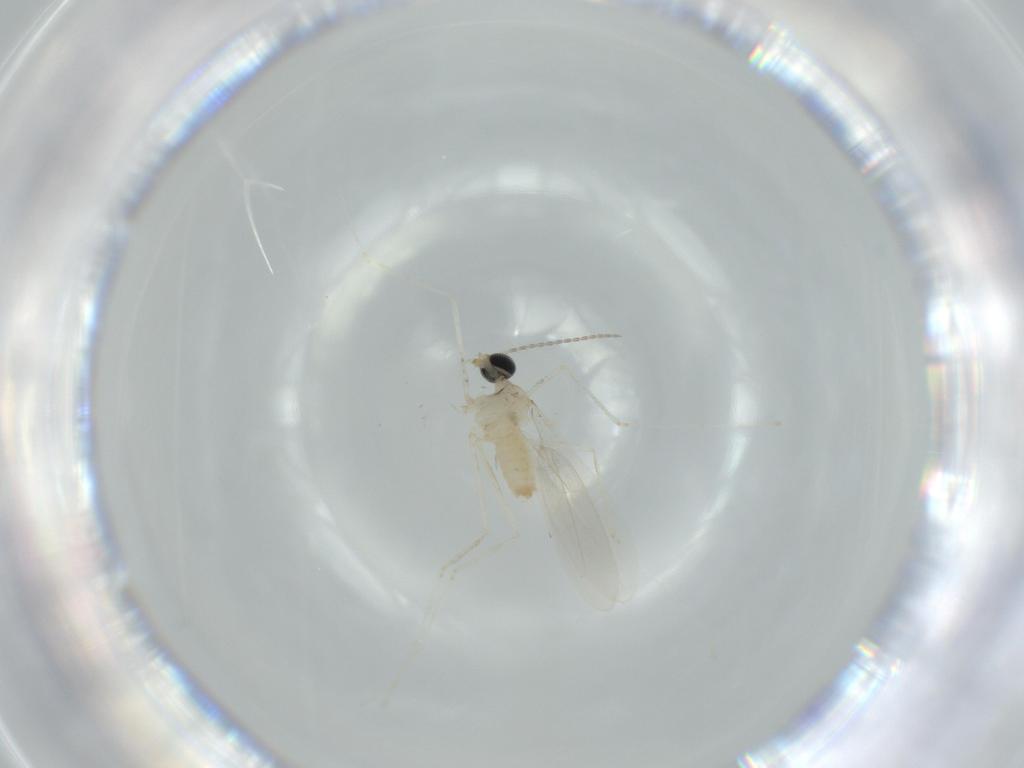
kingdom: Animalia
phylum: Arthropoda
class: Insecta
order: Diptera
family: Cecidomyiidae
